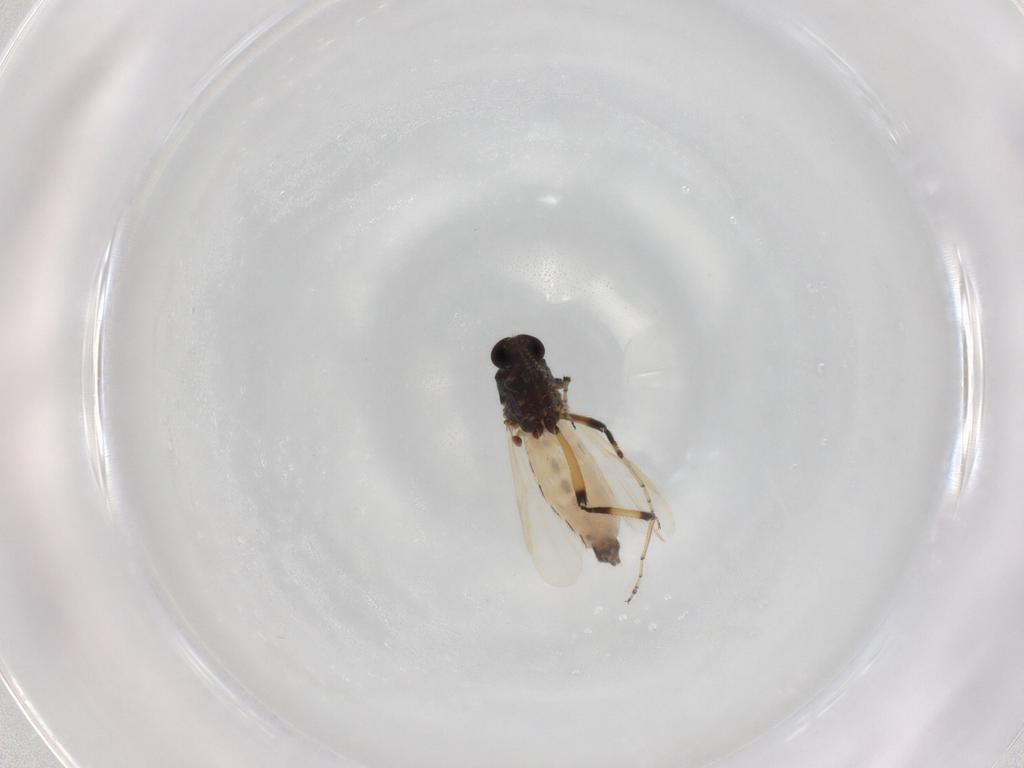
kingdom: Animalia
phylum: Arthropoda
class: Insecta
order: Diptera
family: Ceratopogonidae
